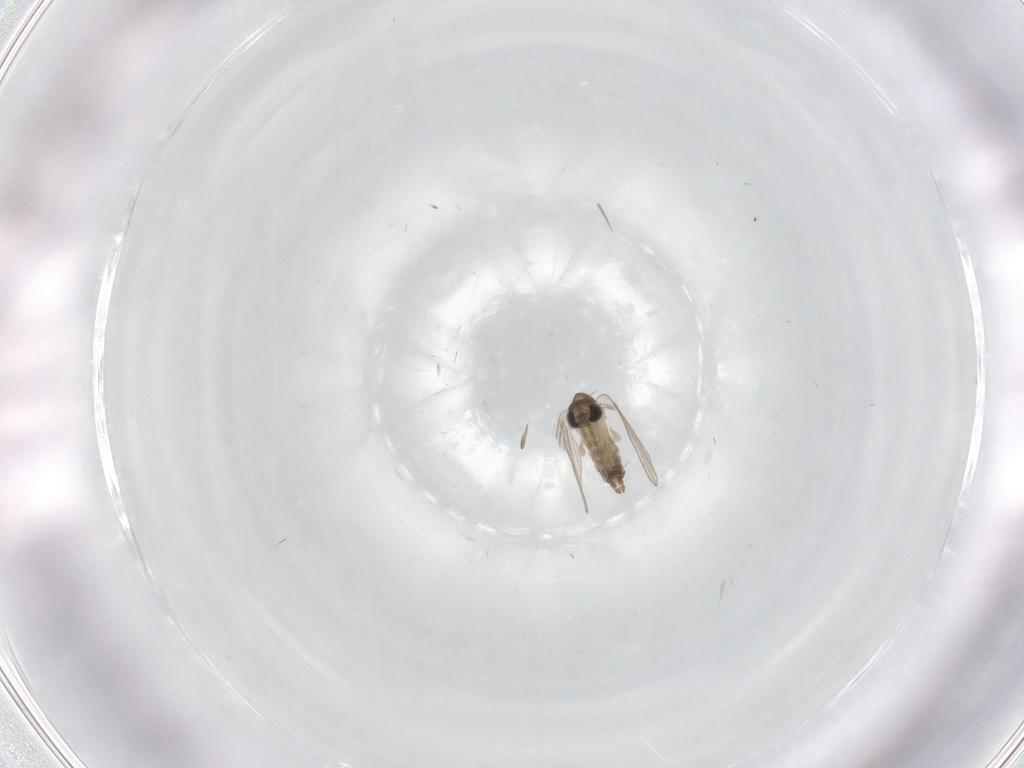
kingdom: Animalia
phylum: Arthropoda
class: Insecta
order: Diptera
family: Cecidomyiidae
